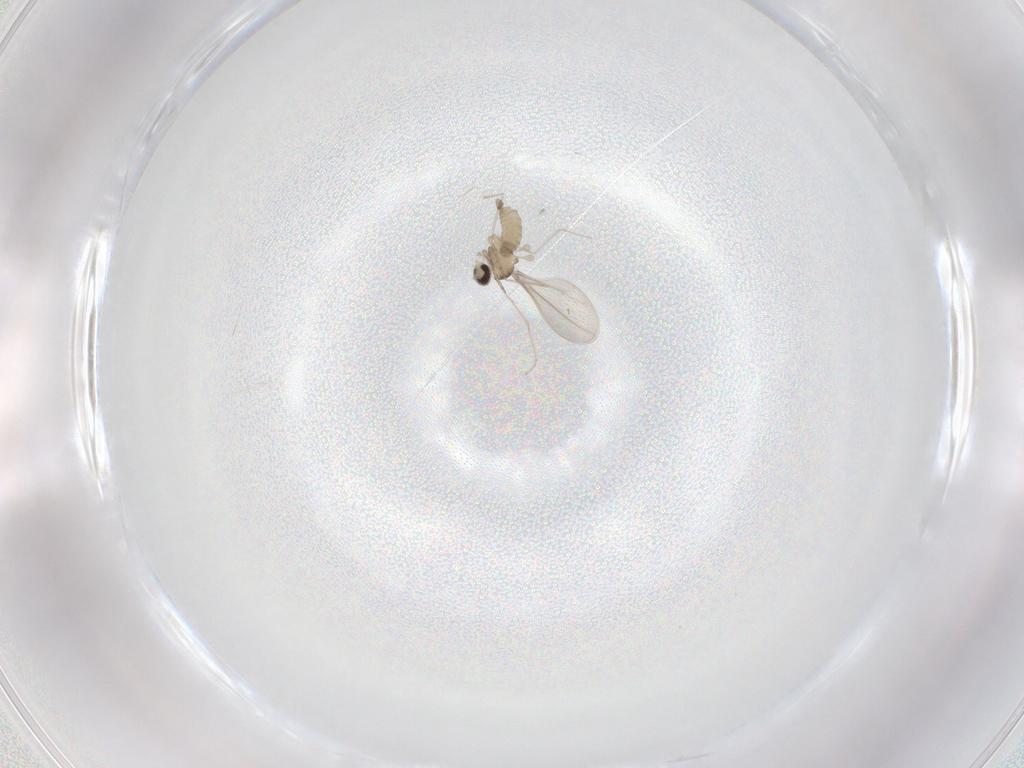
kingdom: Animalia
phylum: Arthropoda
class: Insecta
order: Diptera
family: Cecidomyiidae
